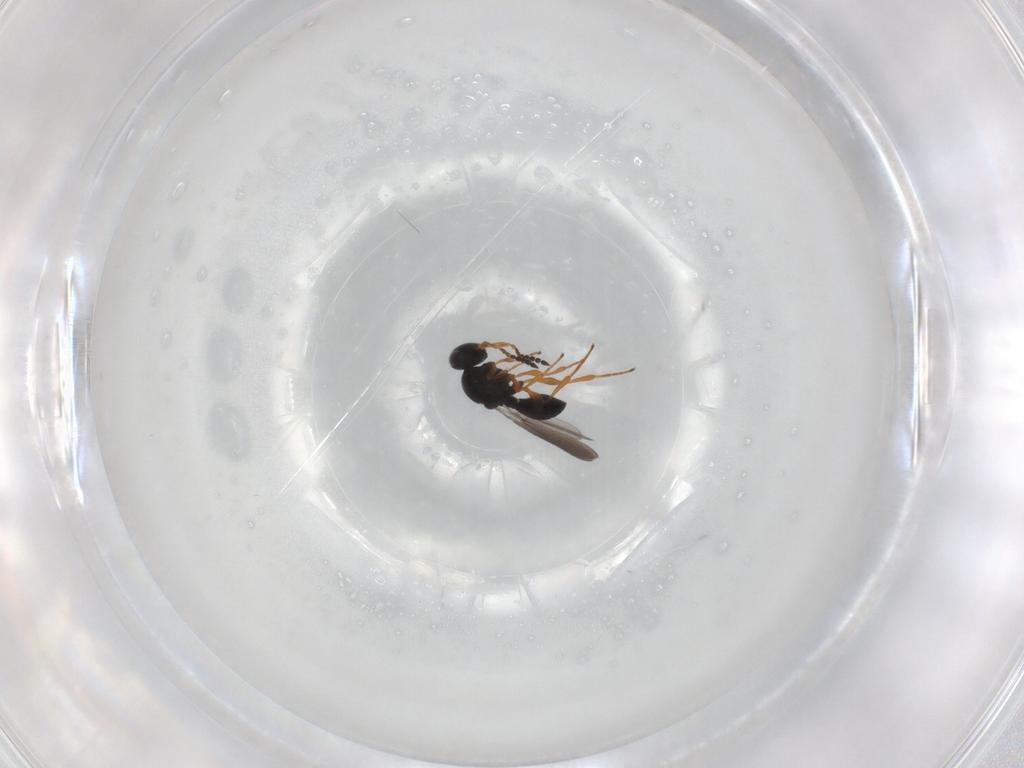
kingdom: Animalia
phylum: Arthropoda
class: Insecta
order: Hymenoptera
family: Platygastridae
